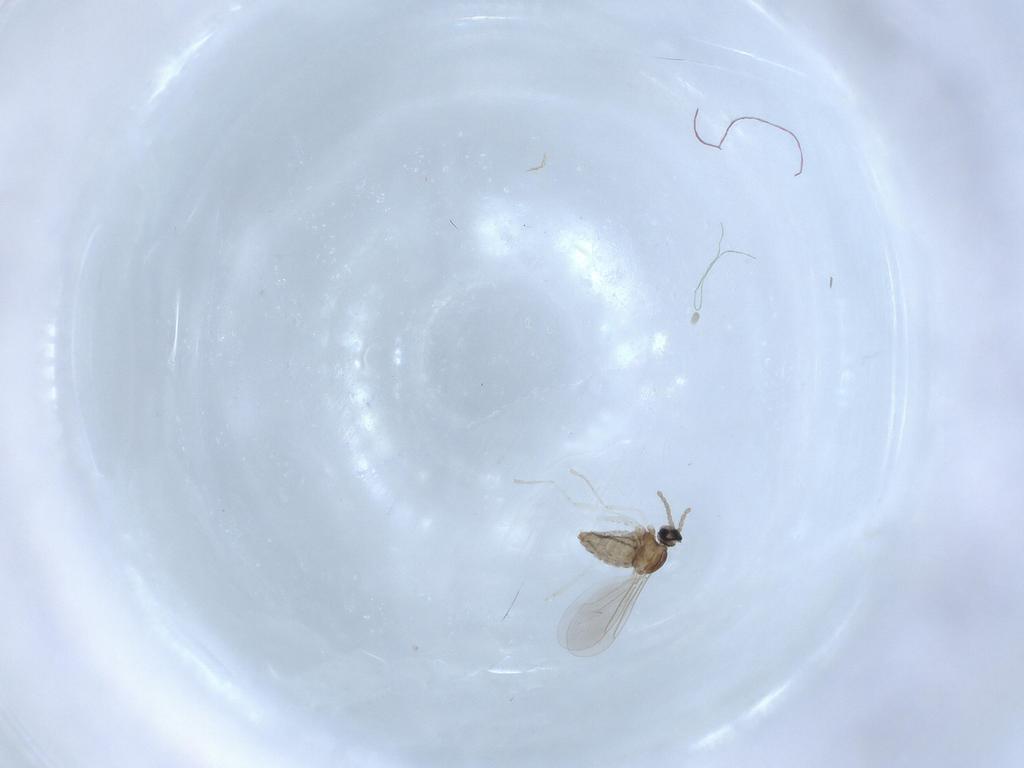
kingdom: Animalia
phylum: Arthropoda
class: Insecta
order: Diptera
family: Cecidomyiidae
